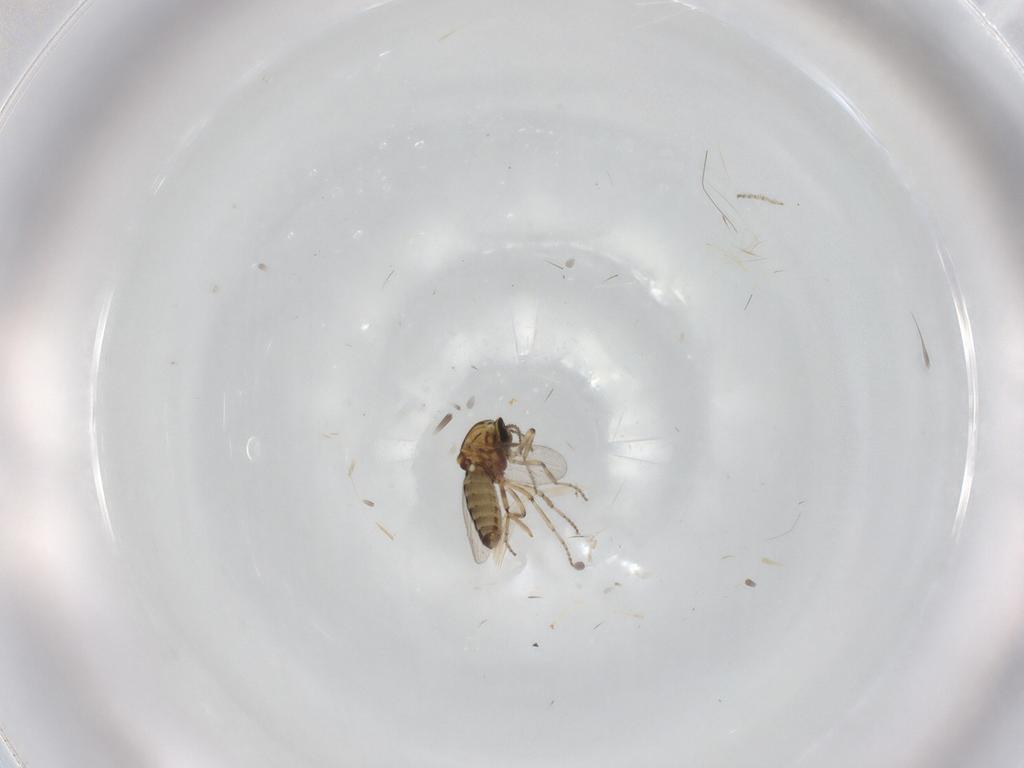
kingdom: Animalia
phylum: Arthropoda
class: Insecta
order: Diptera
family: Ceratopogonidae
